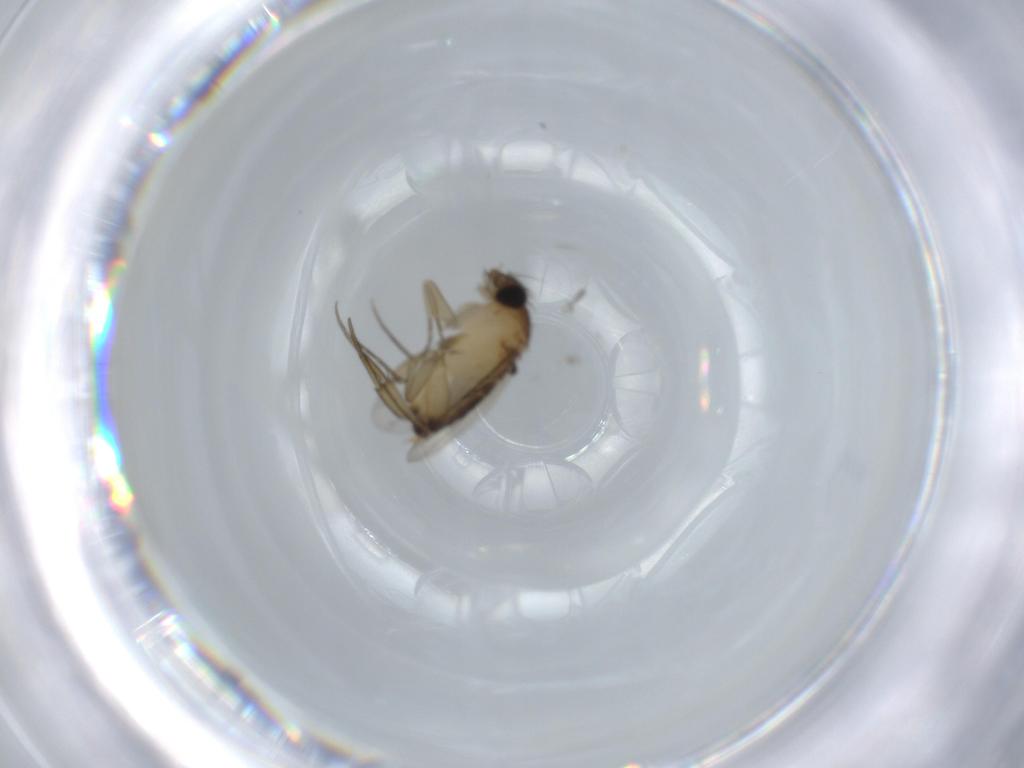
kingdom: Animalia
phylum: Arthropoda
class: Insecta
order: Diptera
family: Phoridae
